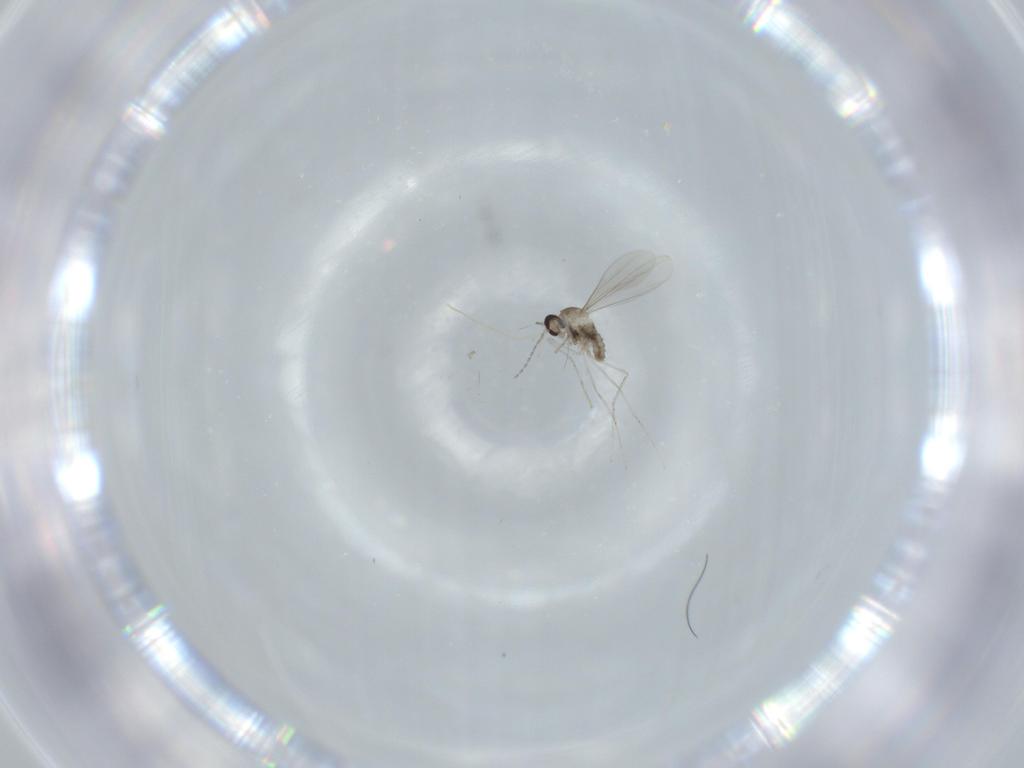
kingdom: Animalia
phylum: Arthropoda
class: Insecta
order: Diptera
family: Cecidomyiidae
